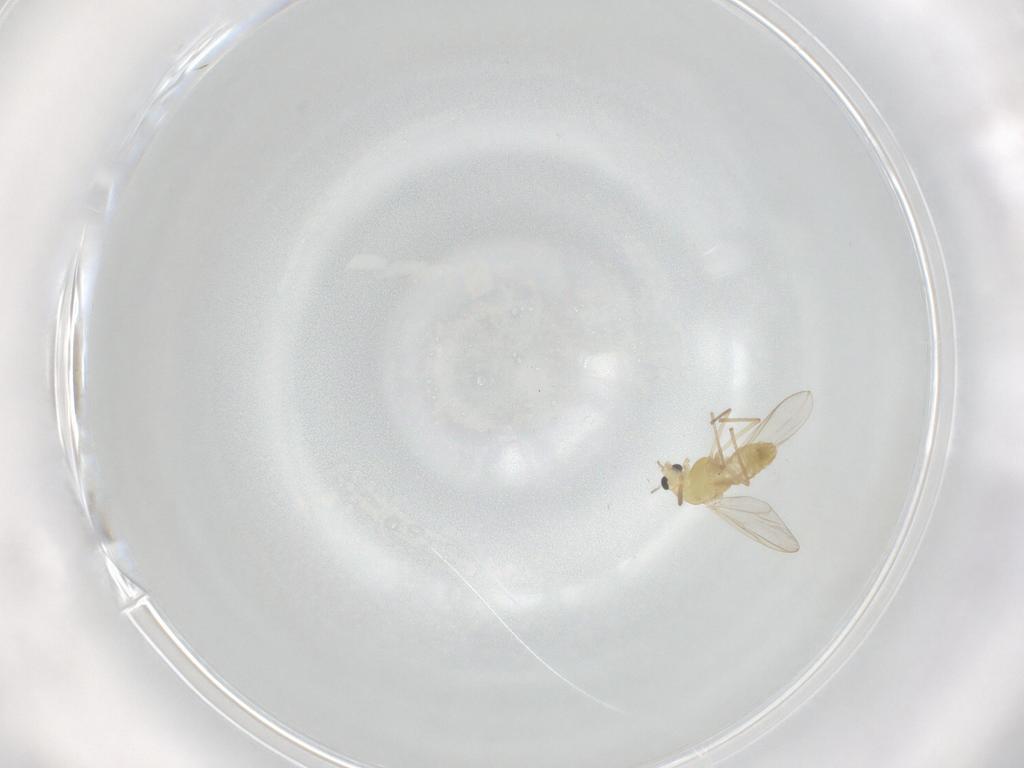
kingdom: Animalia
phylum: Arthropoda
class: Insecta
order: Diptera
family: Chironomidae
